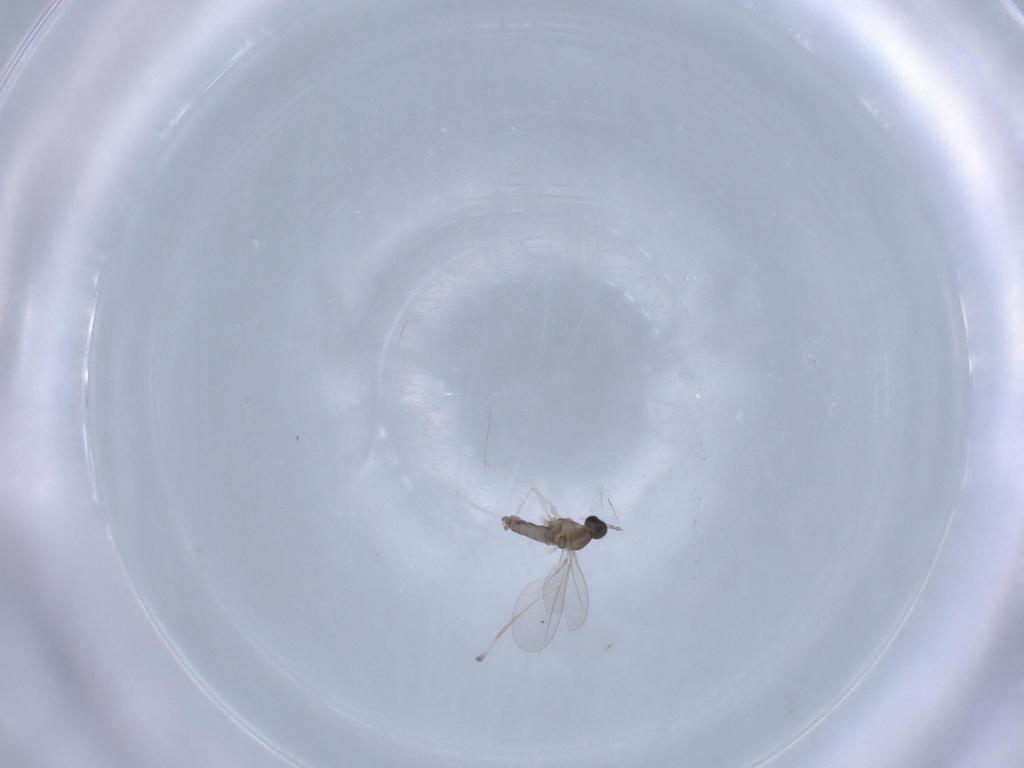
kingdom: Animalia
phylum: Arthropoda
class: Insecta
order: Diptera
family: Cecidomyiidae
